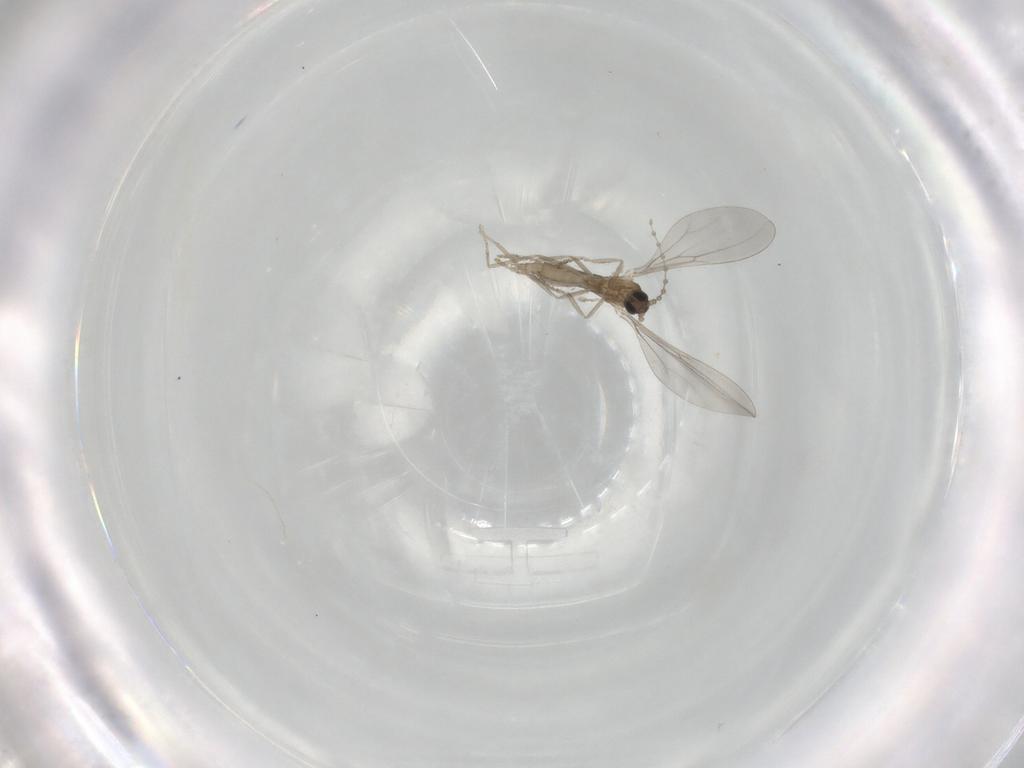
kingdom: Animalia
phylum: Arthropoda
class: Insecta
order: Diptera
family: Cecidomyiidae
